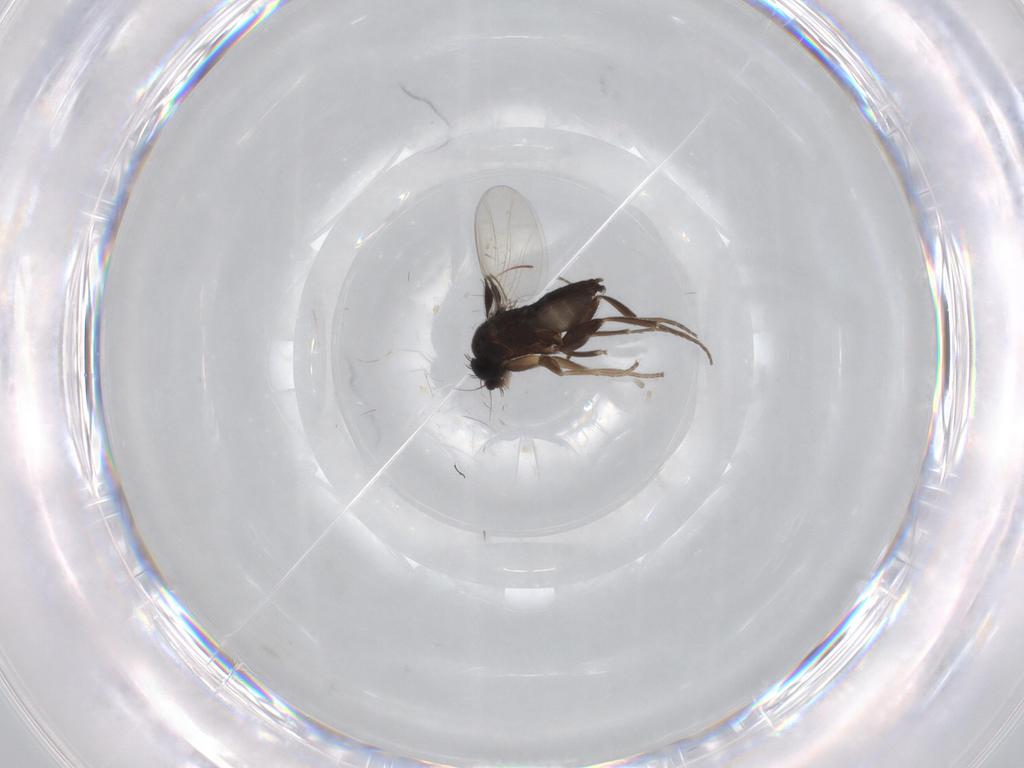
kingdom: Animalia
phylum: Arthropoda
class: Insecta
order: Diptera
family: Phoridae
